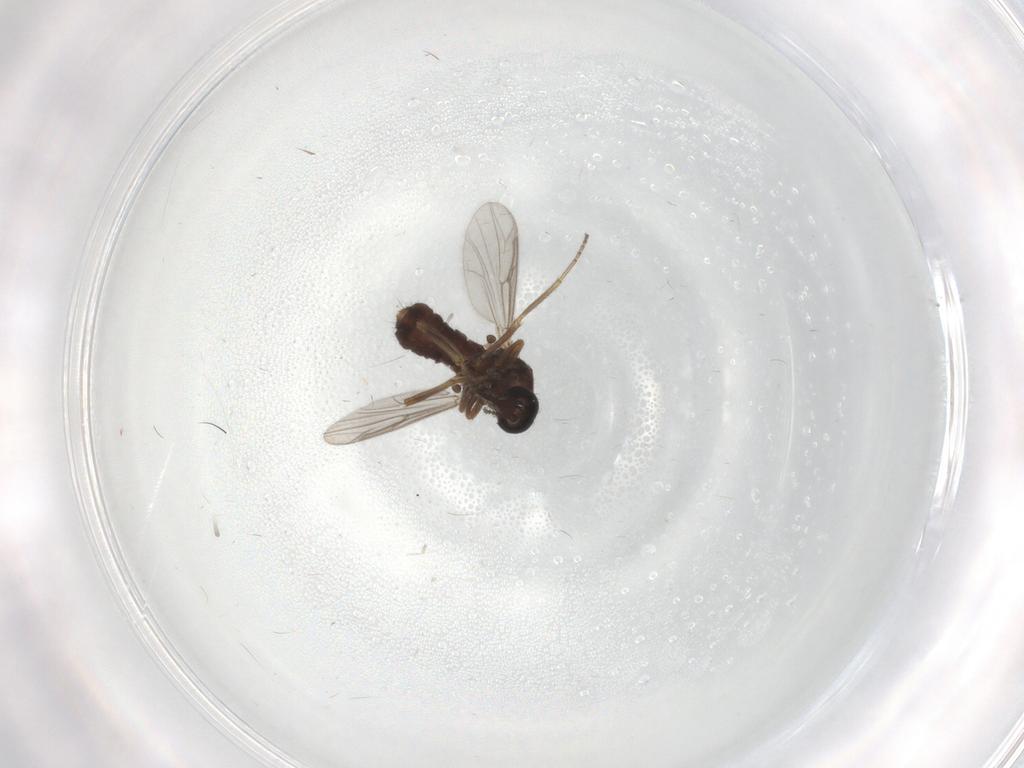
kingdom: Animalia
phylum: Arthropoda
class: Insecta
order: Diptera
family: Ceratopogonidae
